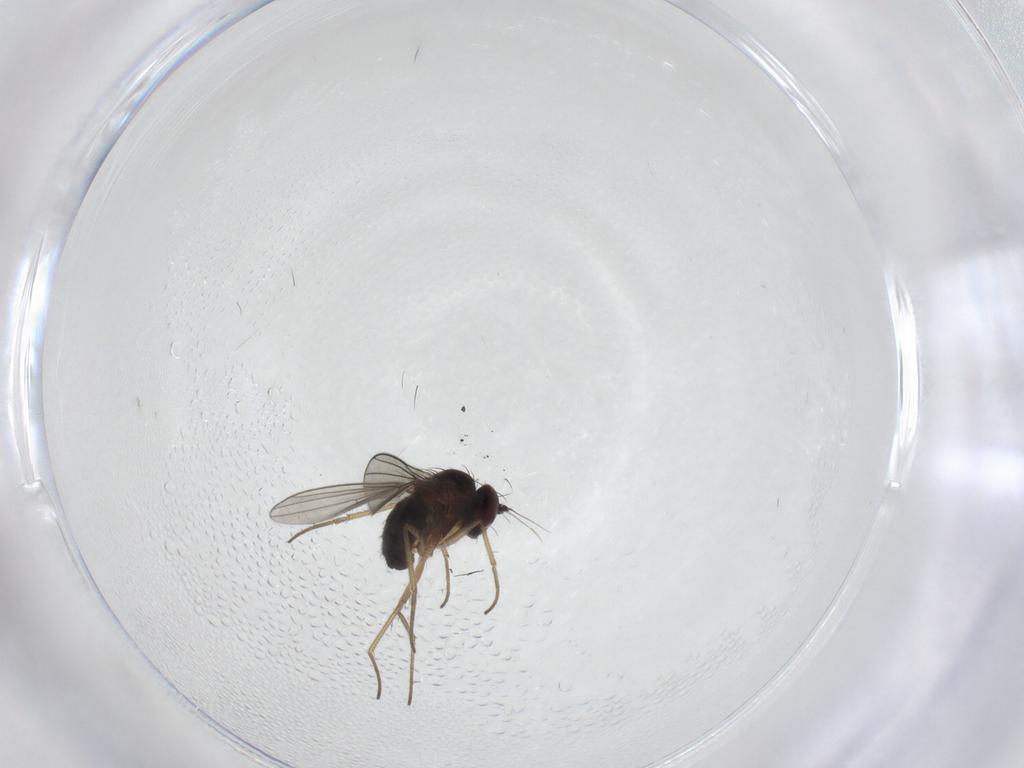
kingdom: Animalia
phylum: Arthropoda
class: Insecta
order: Diptera
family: Dolichopodidae
